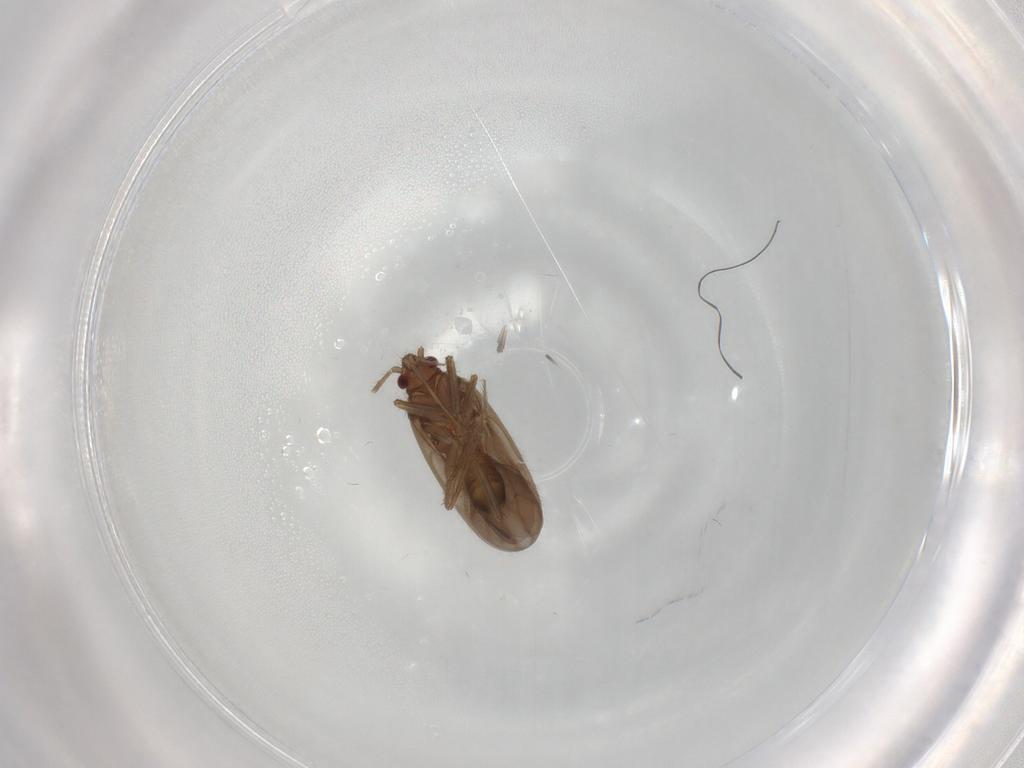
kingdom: Animalia
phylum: Arthropoda
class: Insecta
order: Hemiptera
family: Ceratocombidae
